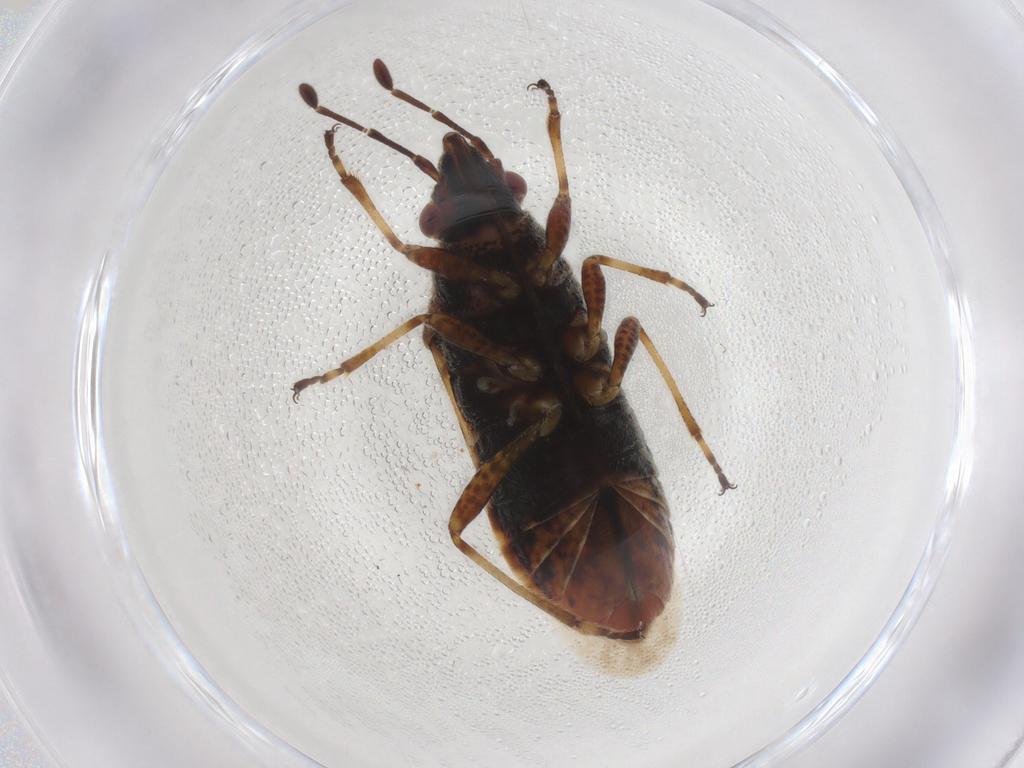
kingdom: Animalia
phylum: Arthropoda
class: Insecta
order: Hemiptera
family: Lygaeidae
